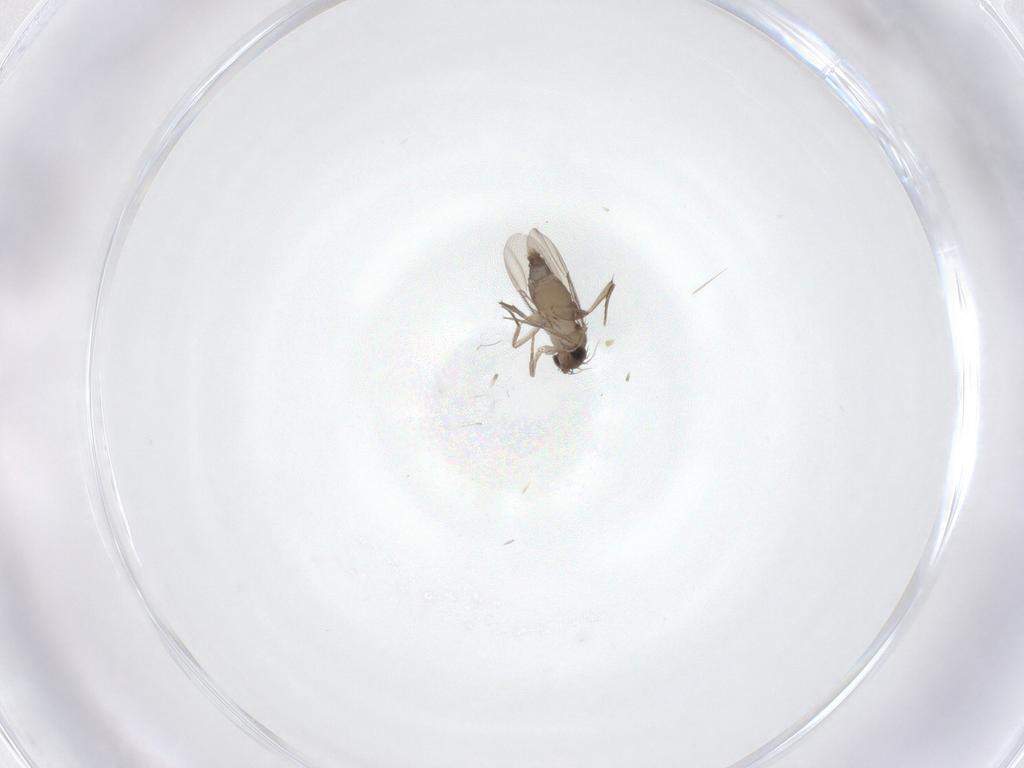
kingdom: Animalia
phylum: Arthropoda
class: Insecta
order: Diptera
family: Phoridae
